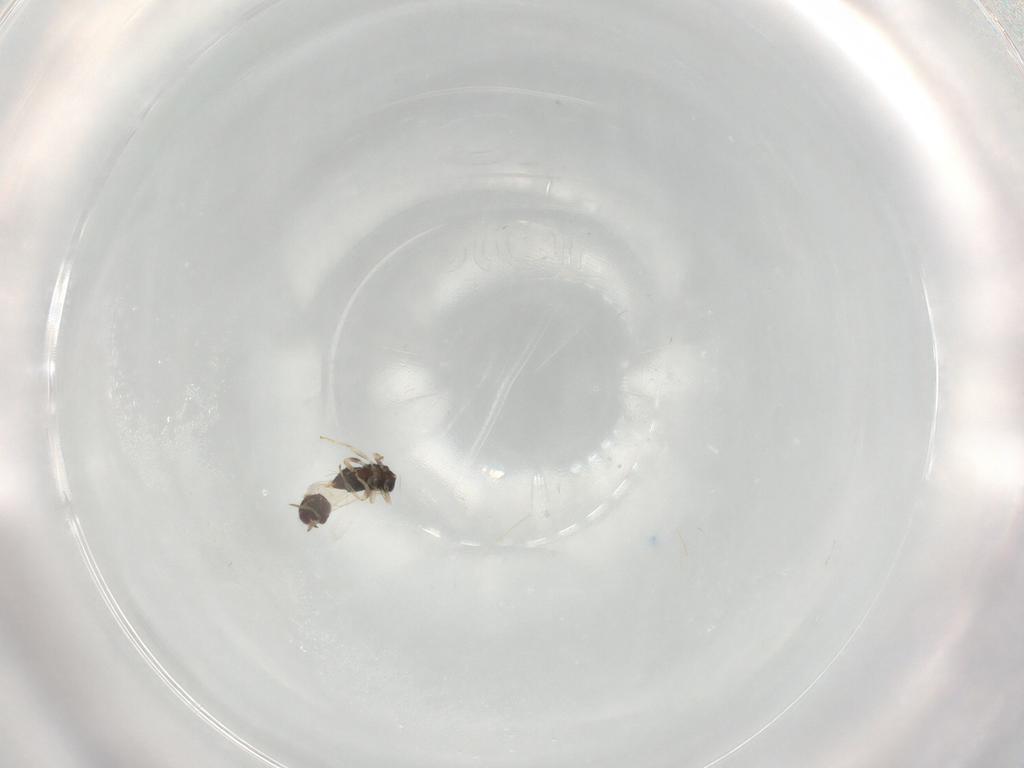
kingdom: Animalia
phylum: Arthropoda
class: Insecta
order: Hymenoptera
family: Aphelinidae
